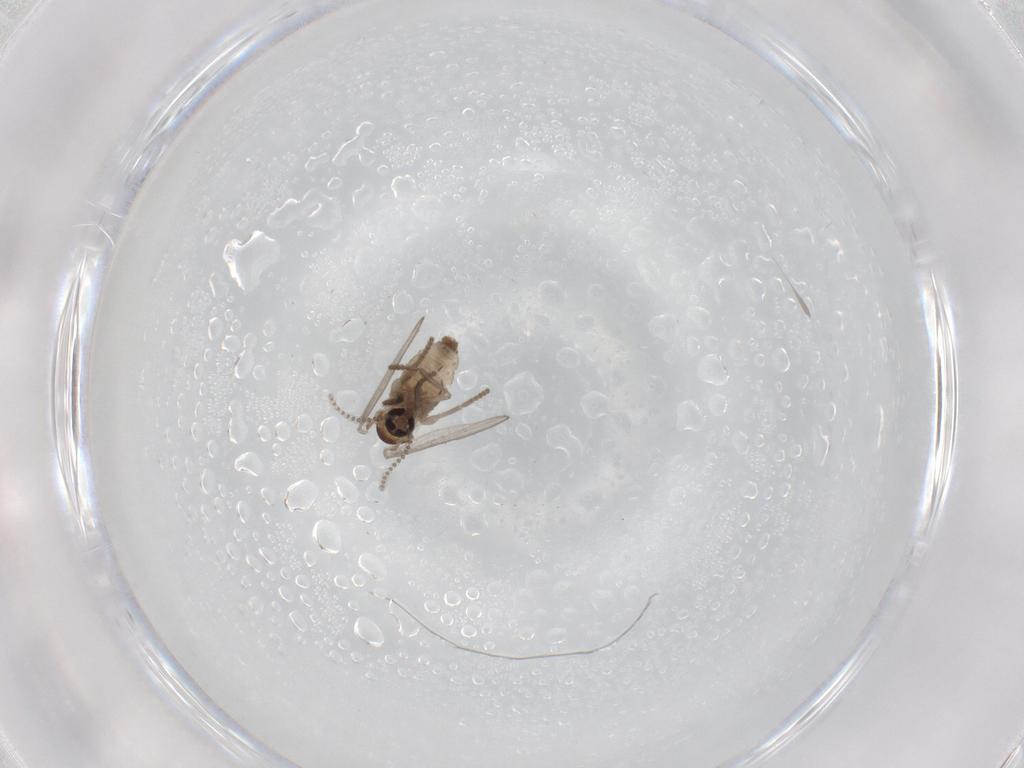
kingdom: Animalia
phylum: Arthropoda
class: Insecta
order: Diptera
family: Psychodidae
